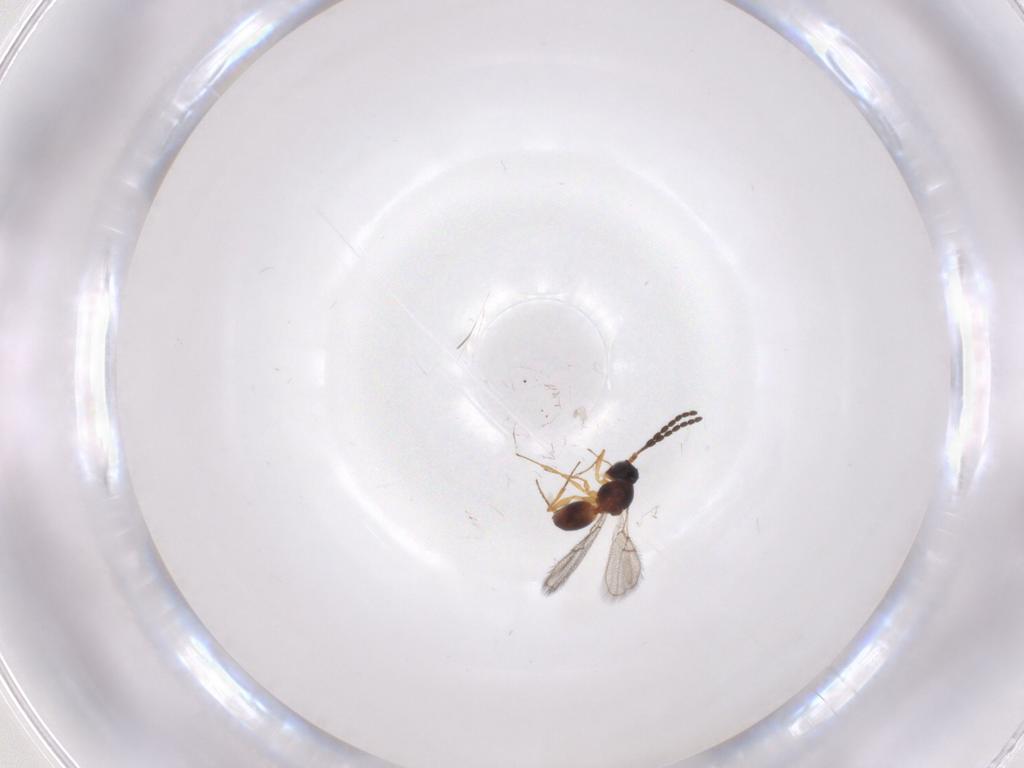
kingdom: Animalia
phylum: Arthropoda
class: Insecta
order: Hymenoptera
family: Figitidae
